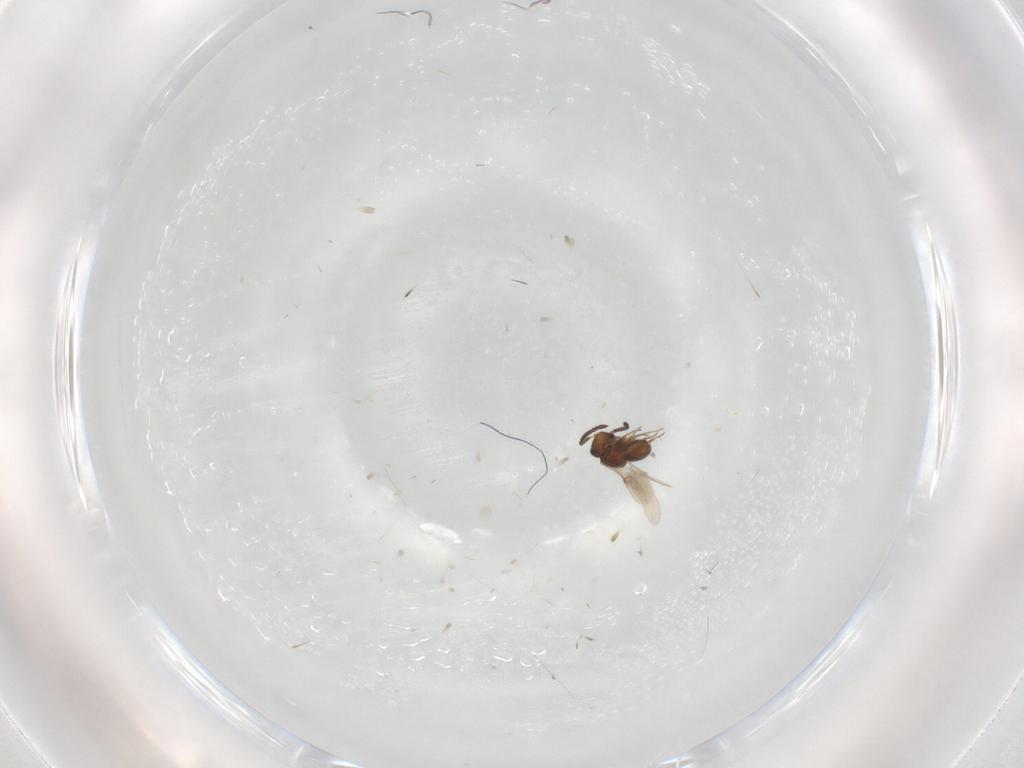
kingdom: Animalia
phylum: Arthropoda
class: Insecta
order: Hymenoptera
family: Scelionidae
